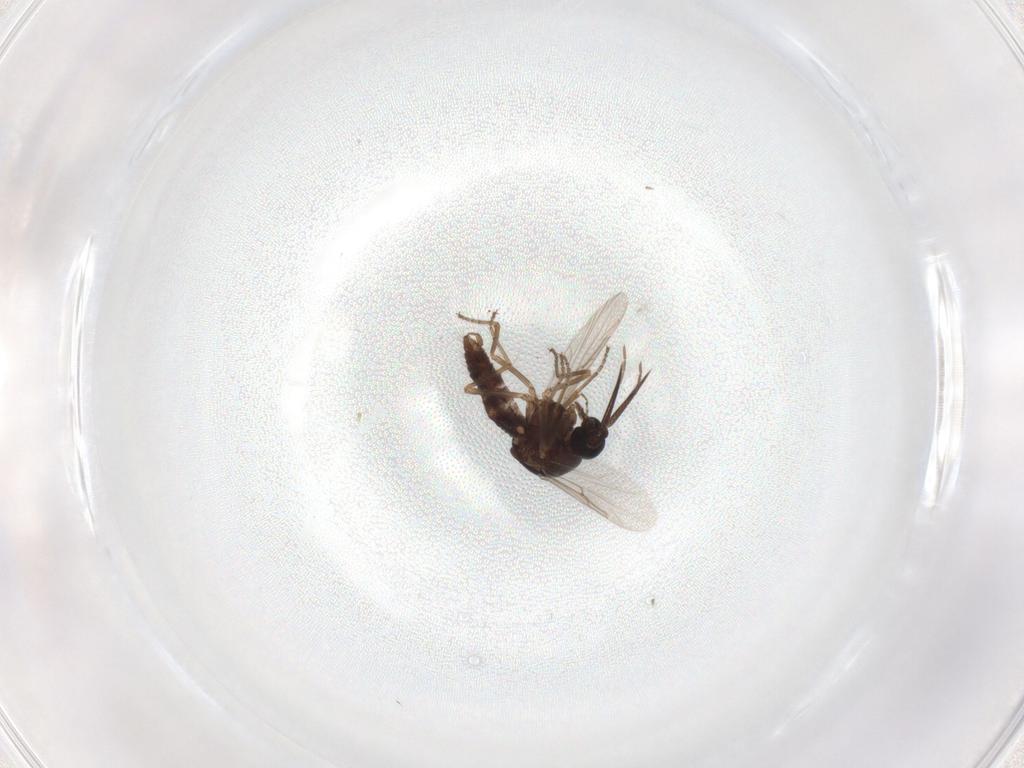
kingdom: Animalia
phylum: Arthropoda
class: Insecta
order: Diptera
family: Ceratopogonidae
